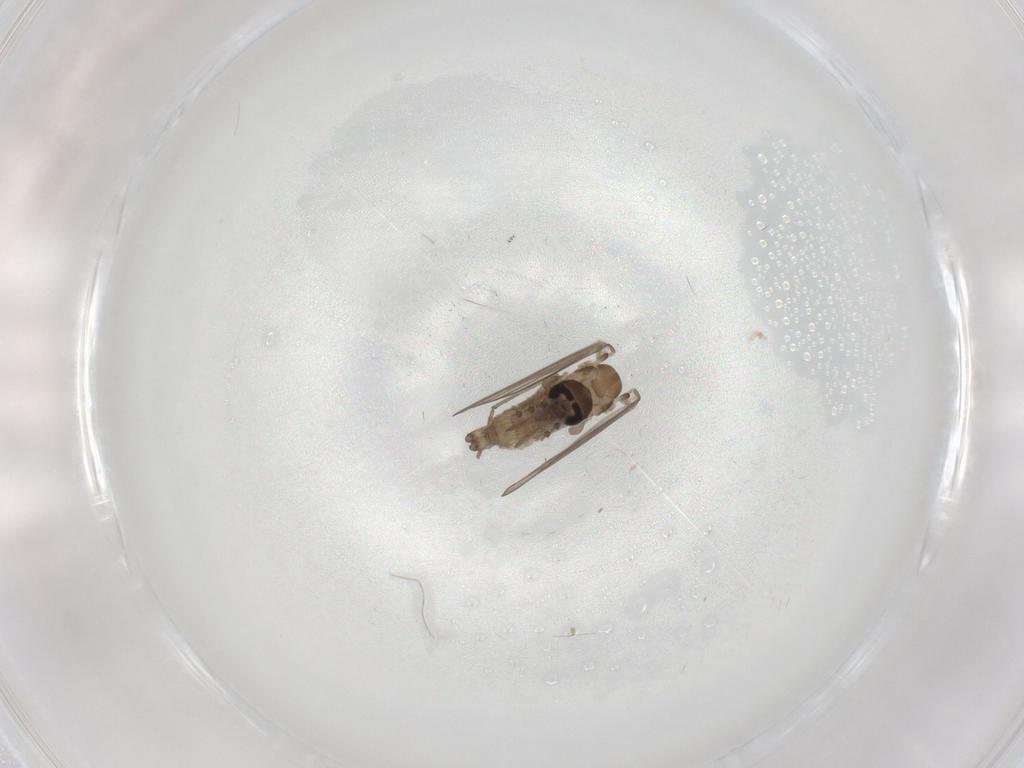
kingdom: Animalia
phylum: Arthropoda
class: Insecta
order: Diptera
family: Psychodidae
